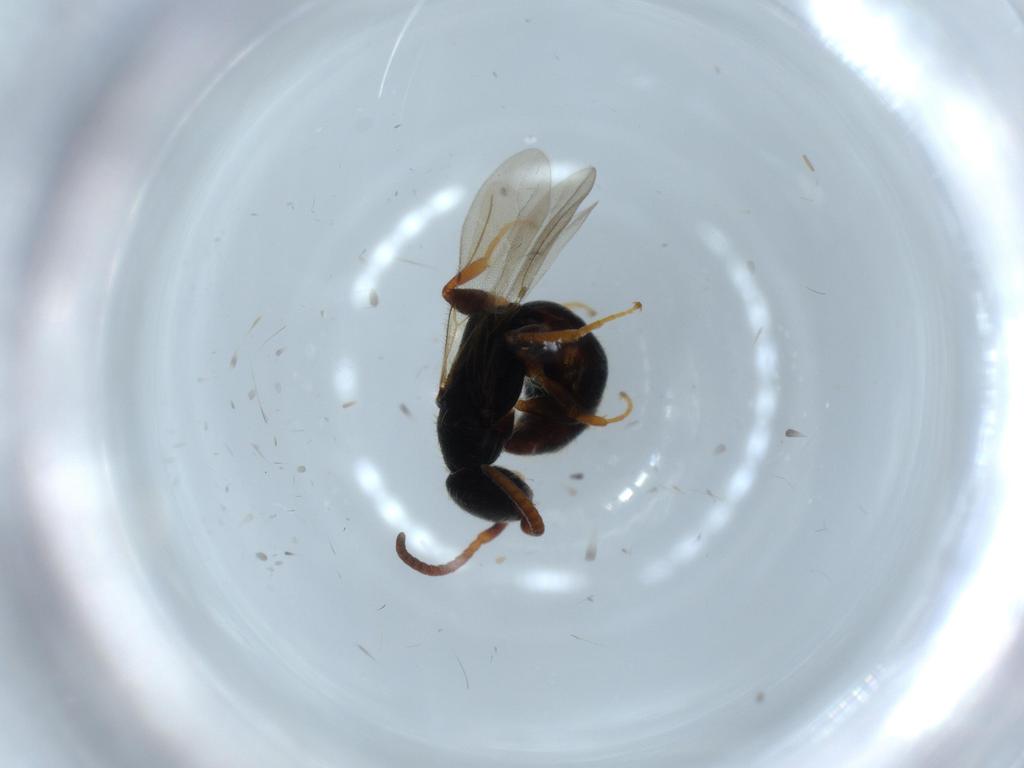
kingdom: Animalia
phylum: Arthropoda
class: Insecta
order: Hymenoptera
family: Bethylidae
